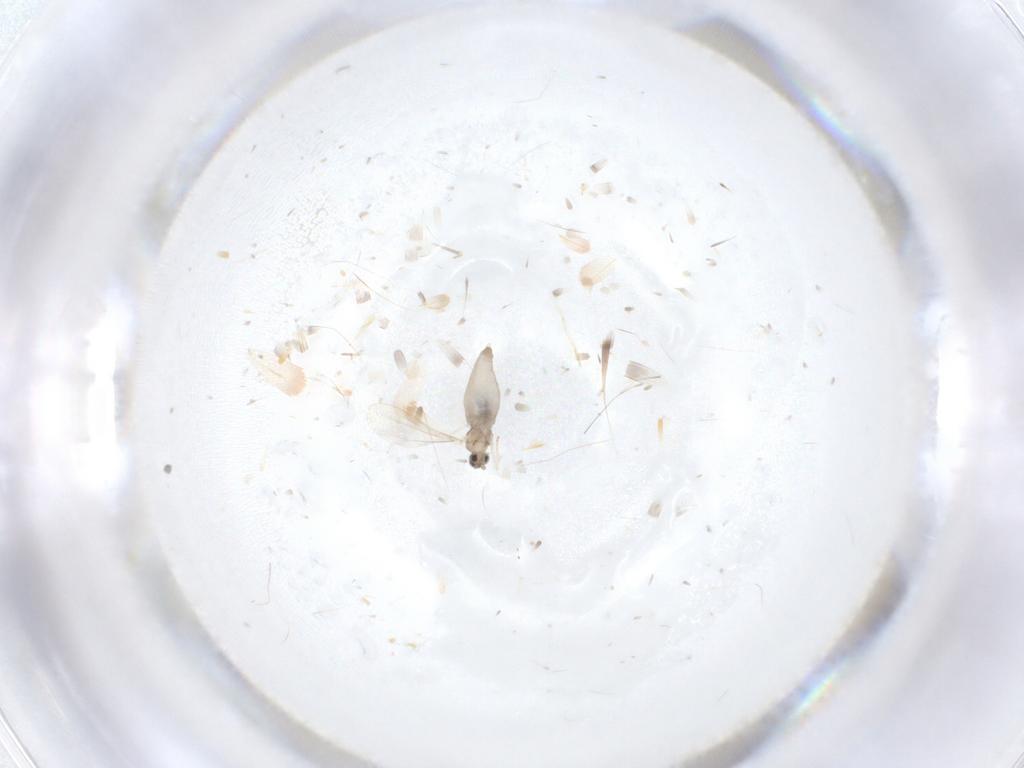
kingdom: Animalia
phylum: Arthropoda
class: Insecta
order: Diptera
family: Cecidomyiidae
